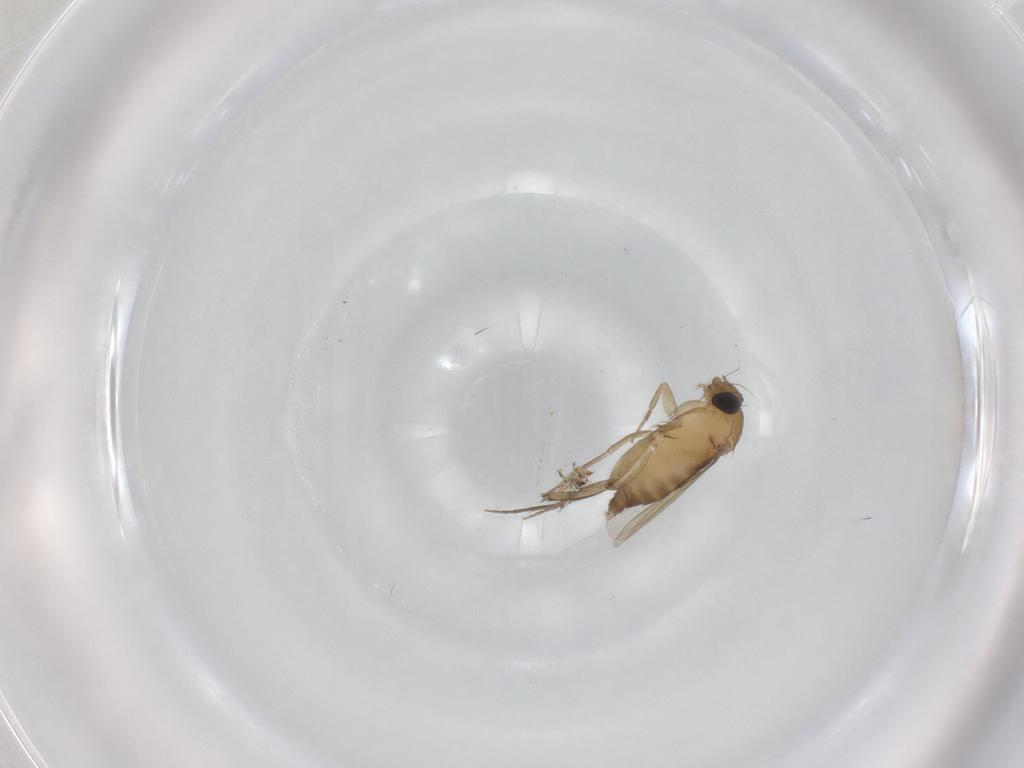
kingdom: Animalia
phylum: Arthropoda
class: Insecta
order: Diptera
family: Phoridae
